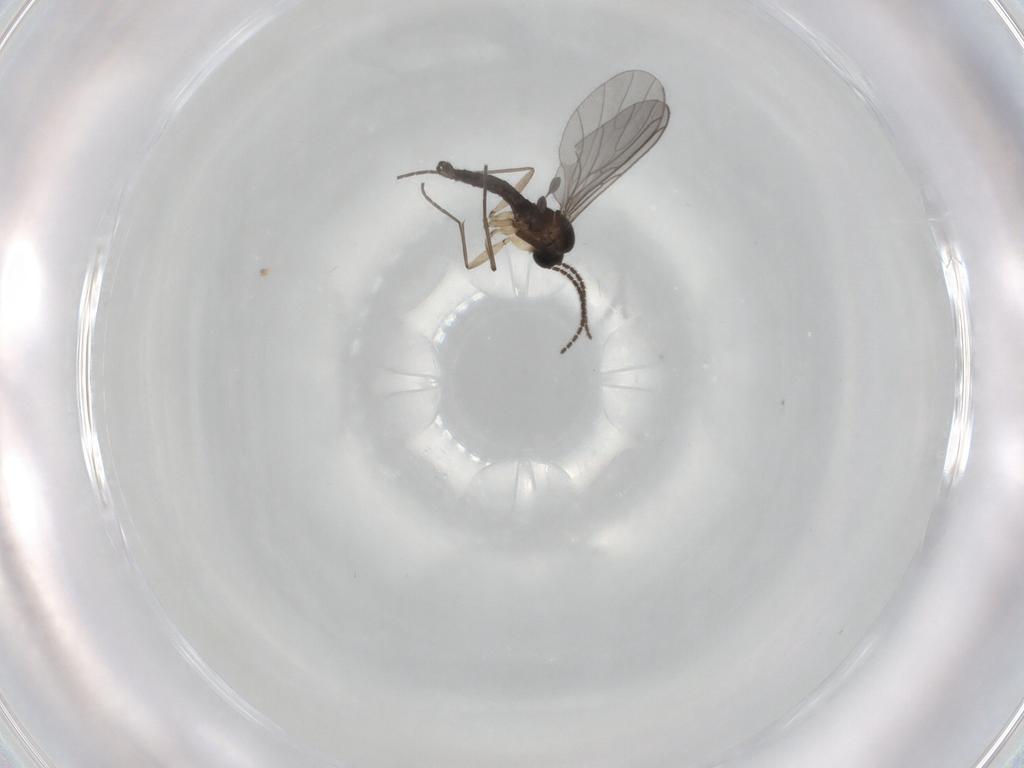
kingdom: Animalia
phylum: Arthropoda
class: Insecta
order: Diptera
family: Sciaridae
